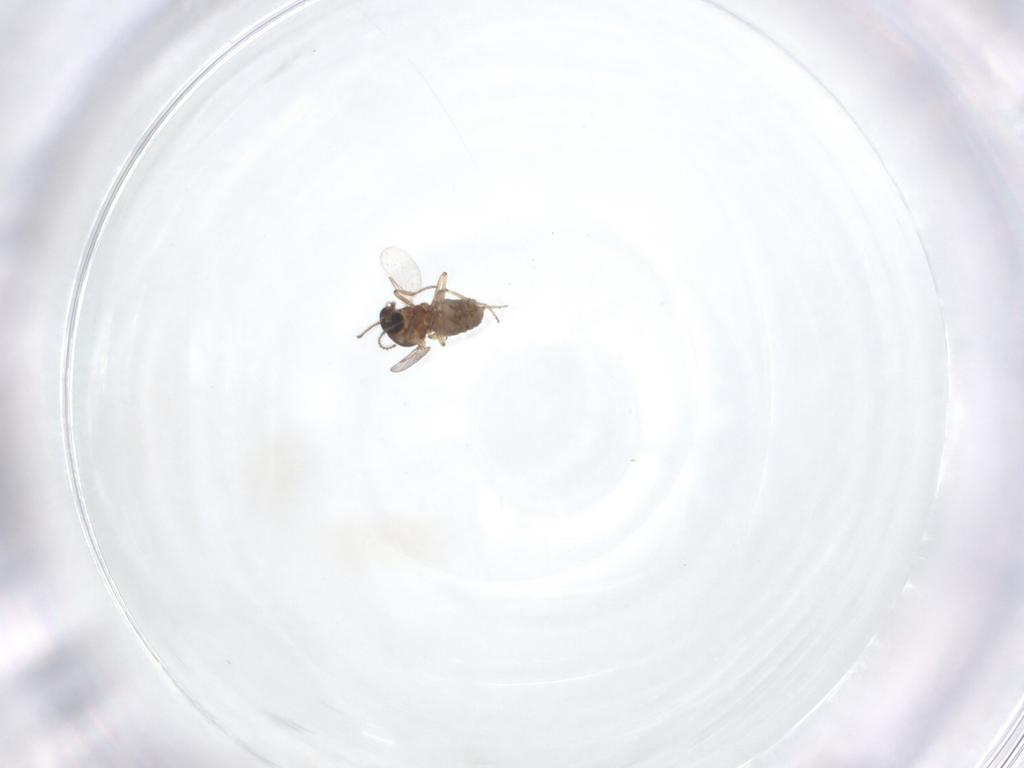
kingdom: Animalia
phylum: Arthropoda
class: Insecta
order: Diptera
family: Ceratopogonidae
